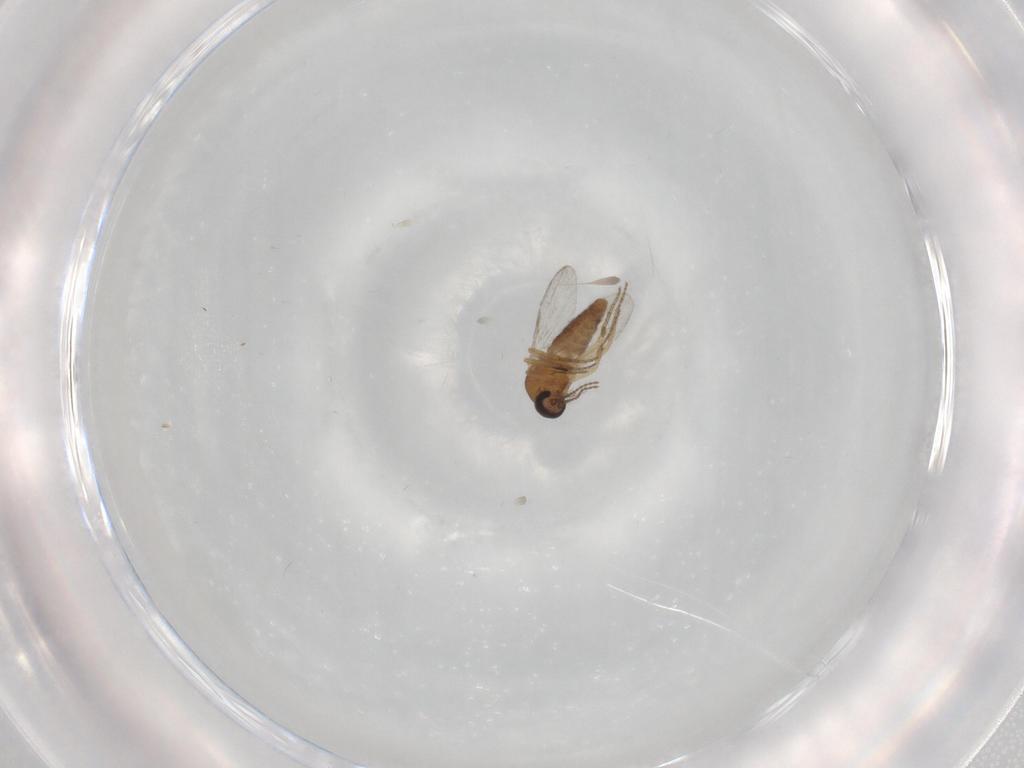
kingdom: Animalia
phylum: Arthropoda
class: Insecta
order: Diptera
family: Ceratopogonidae
